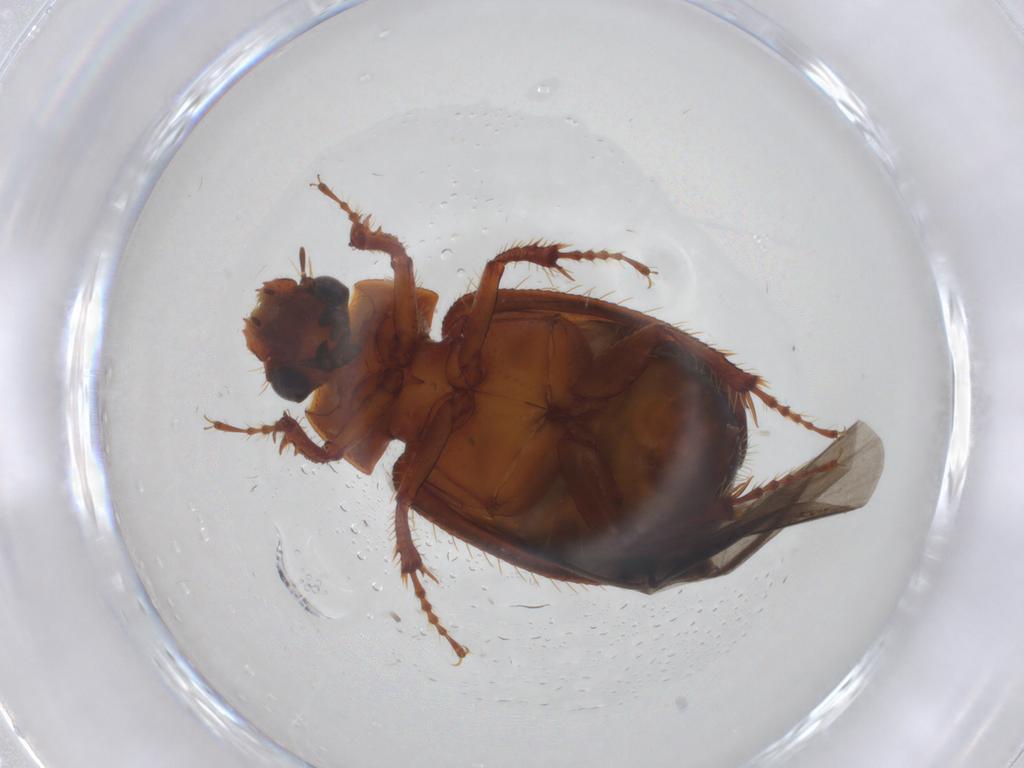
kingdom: Animalia
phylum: Arthropoda
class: Insecta
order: Coleoptera
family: Hybosoridae
